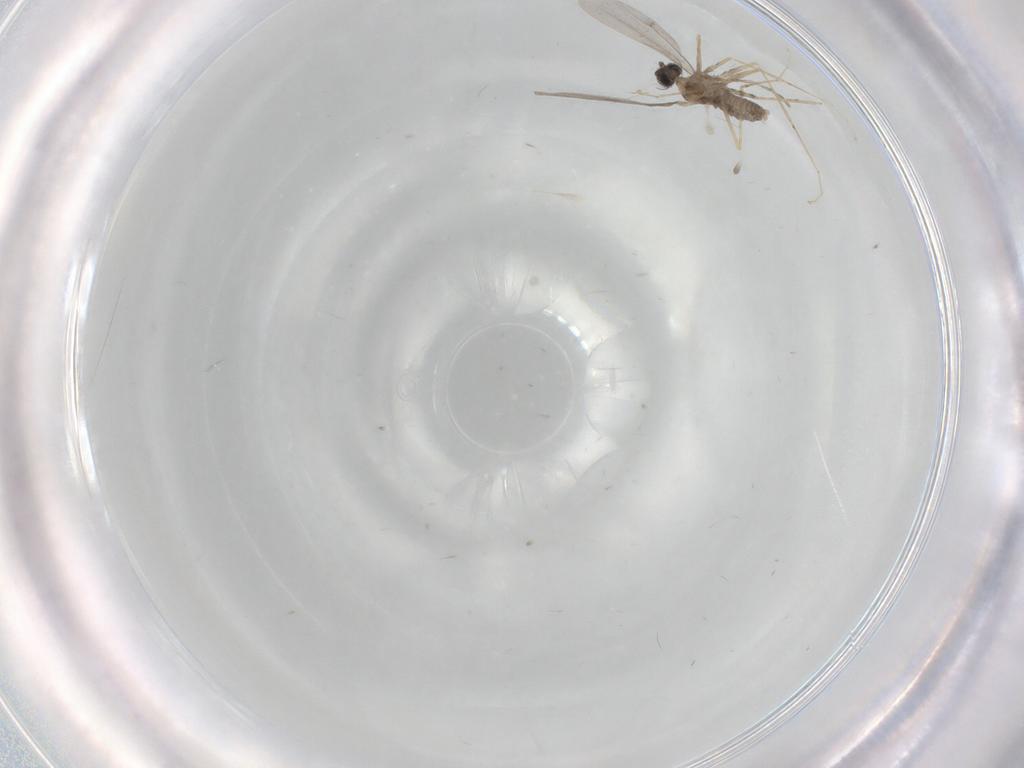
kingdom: Animalia
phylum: Arthropoda
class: Insecta
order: Diptera
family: Cecidomyiidae
